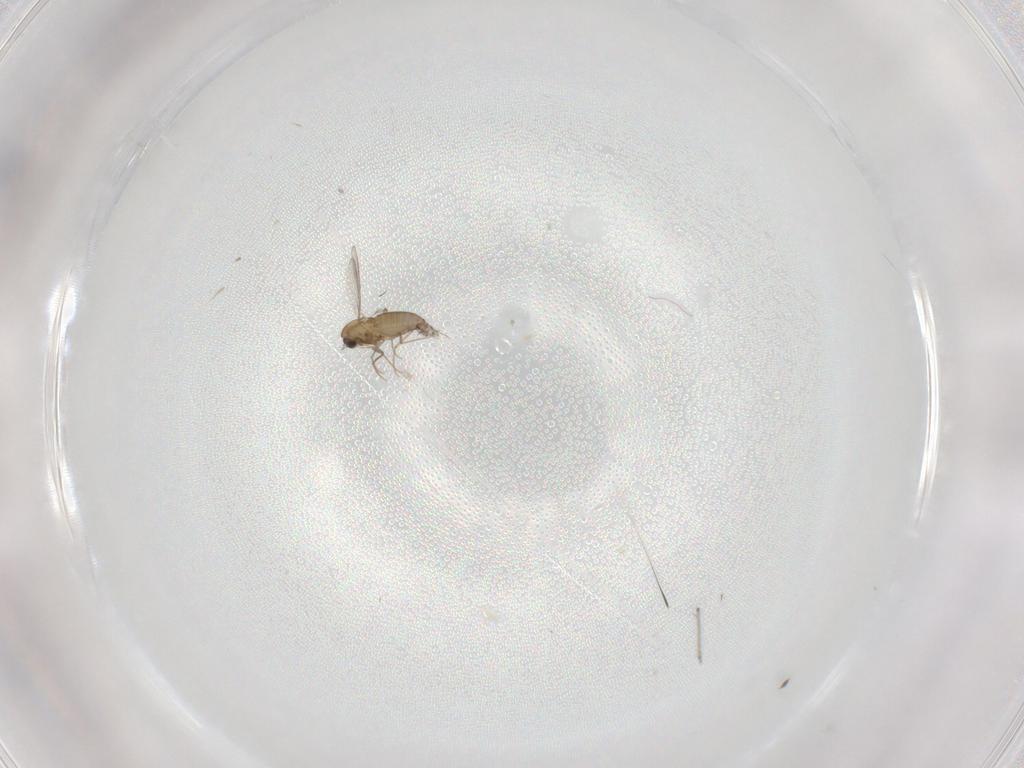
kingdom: Animalia
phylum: Arthropoda
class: Insecta
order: Diptera
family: Chironomidae
